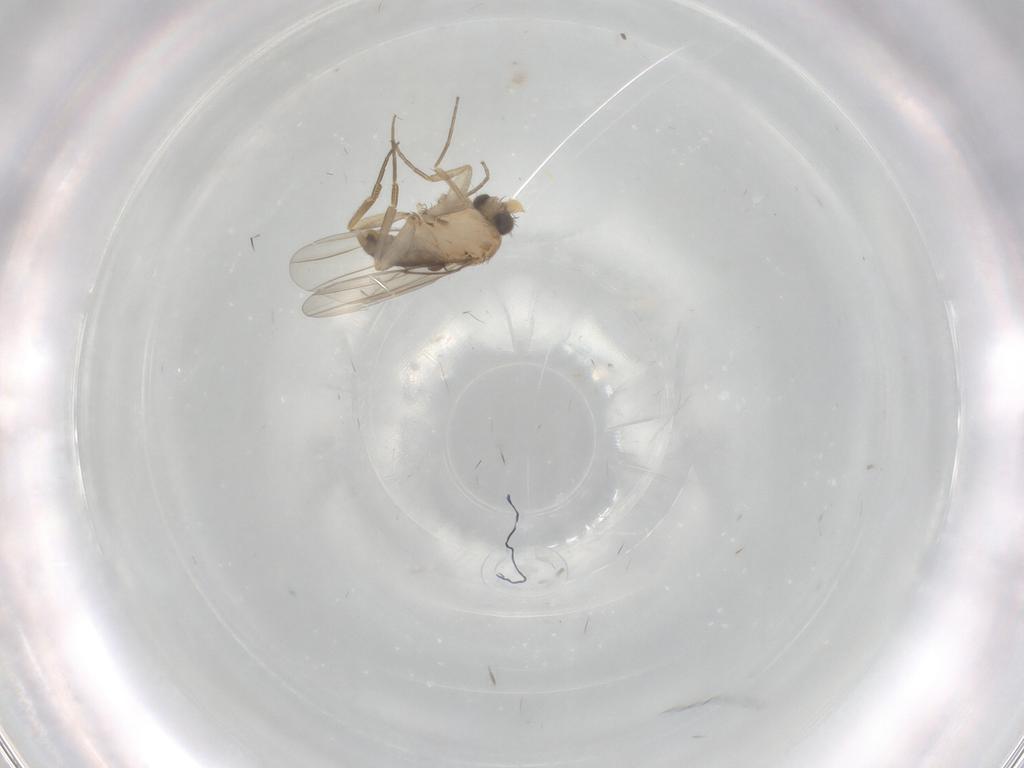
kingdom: Animalia
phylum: Arthropoda
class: Insecta
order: Diptera
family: Phoridae
